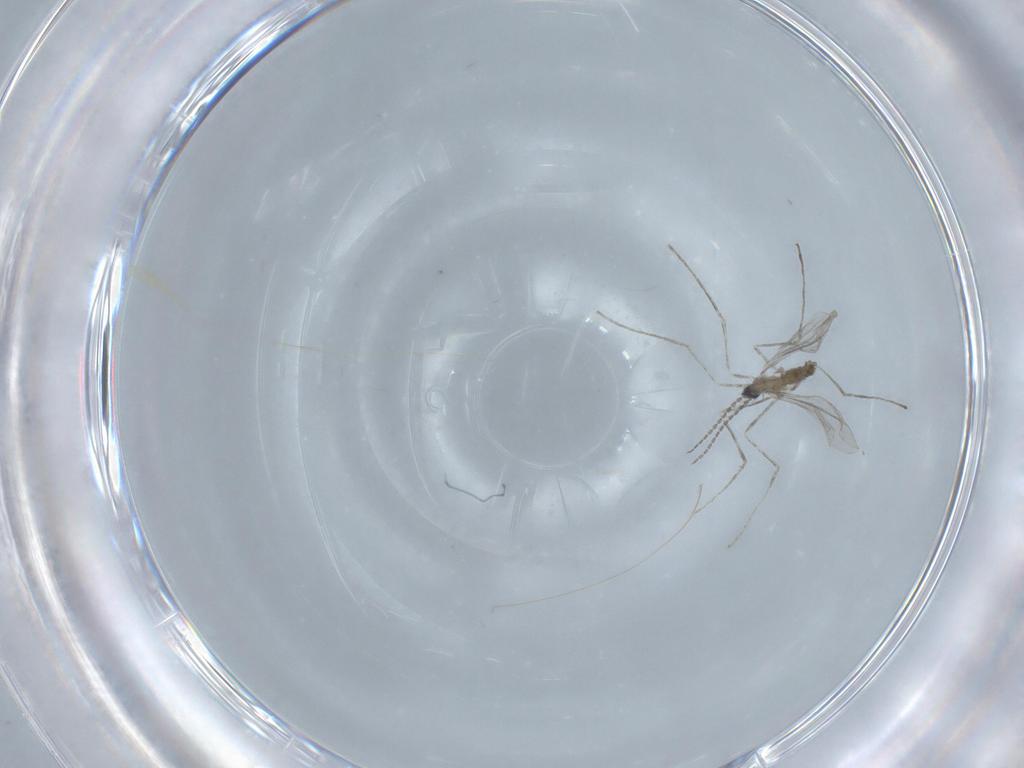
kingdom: Animalia
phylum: Arthropoda
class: Insecta
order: Diptera
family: Cecidomyiidae
